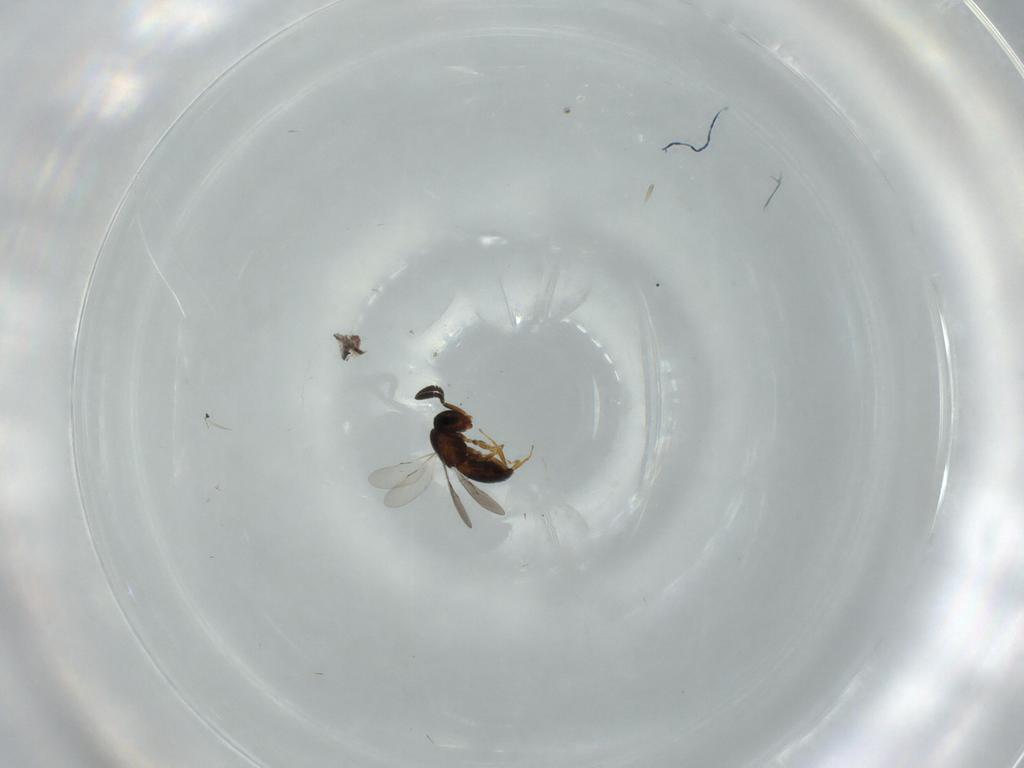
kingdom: Animalia
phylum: Arthropoda
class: Insecta
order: Hymenoptera
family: Scelionidae
